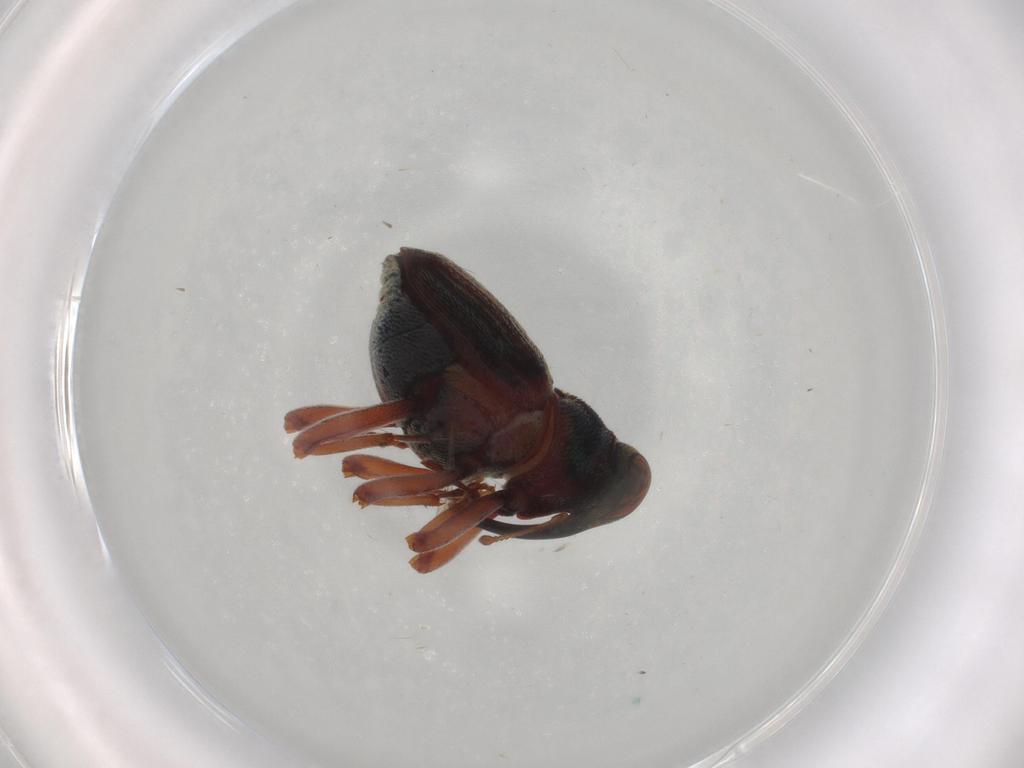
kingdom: Animalia
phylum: Arthropoda
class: Insecta
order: Coleoptera
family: Curculionidae
